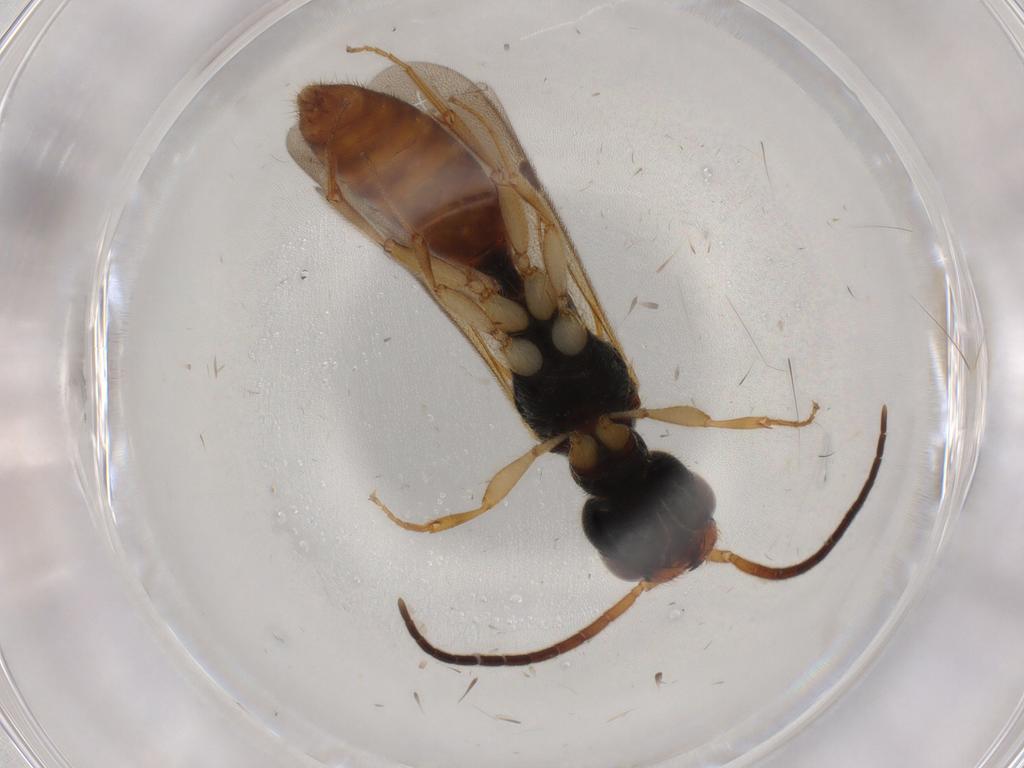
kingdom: Animalia
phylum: Arthropoda
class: Insecta
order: Hymenoptera
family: Bethylidae
